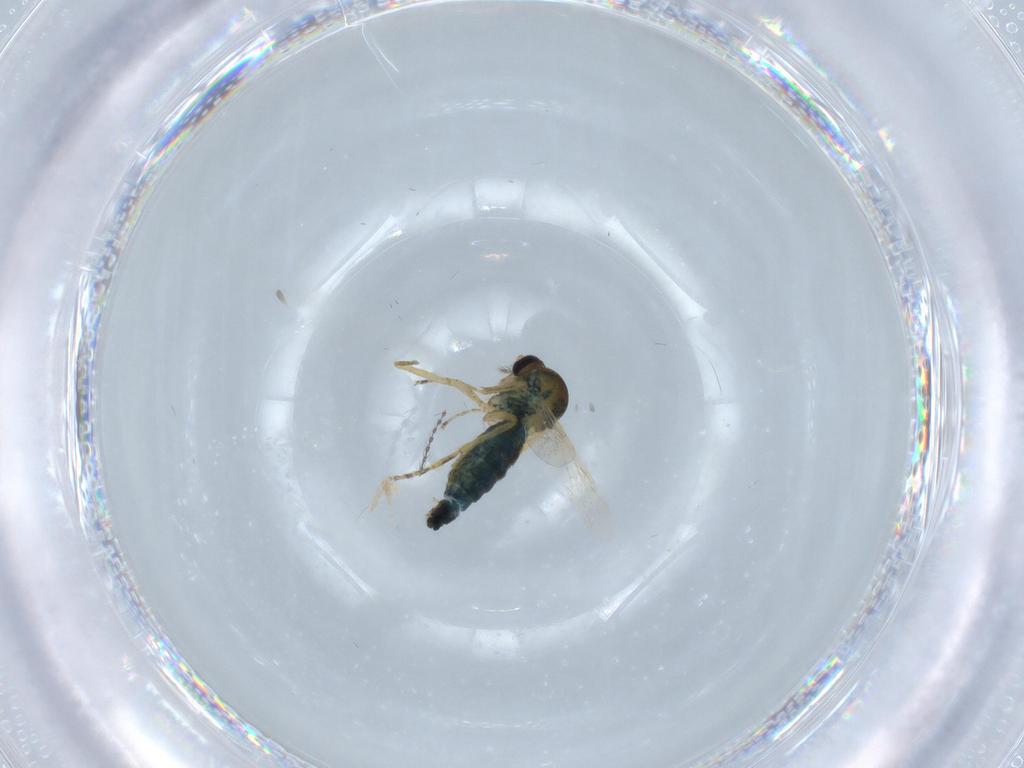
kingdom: Animalia
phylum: Arthropoda
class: Insecta
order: Diptera
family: Ceratopogonidae
